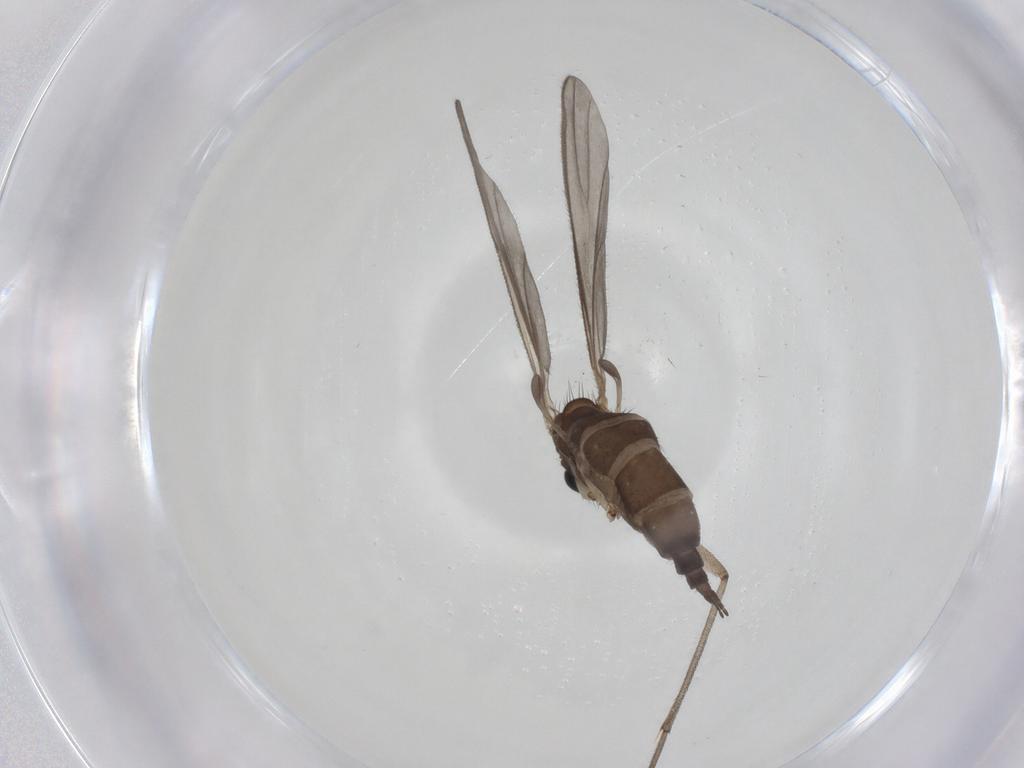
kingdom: Animalia
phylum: Arthropoda
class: Insecta
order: Diptera
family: Sciaridae
